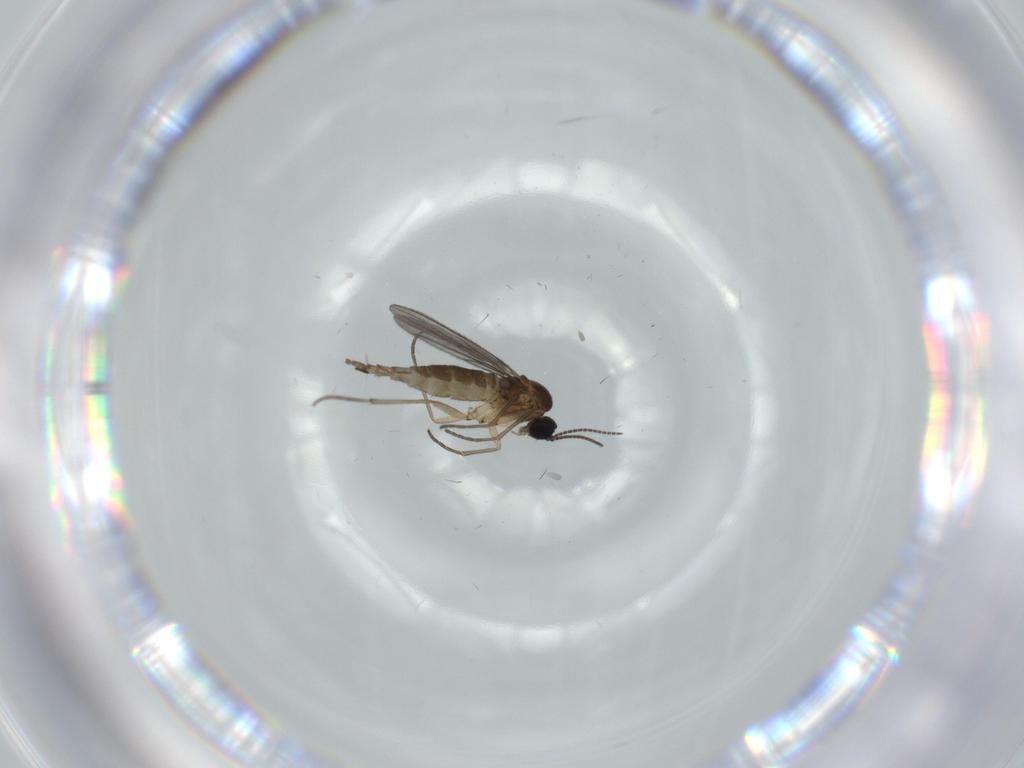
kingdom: Animalia
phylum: Arthropoda
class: Insecta
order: Diptera
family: Sciaridae
